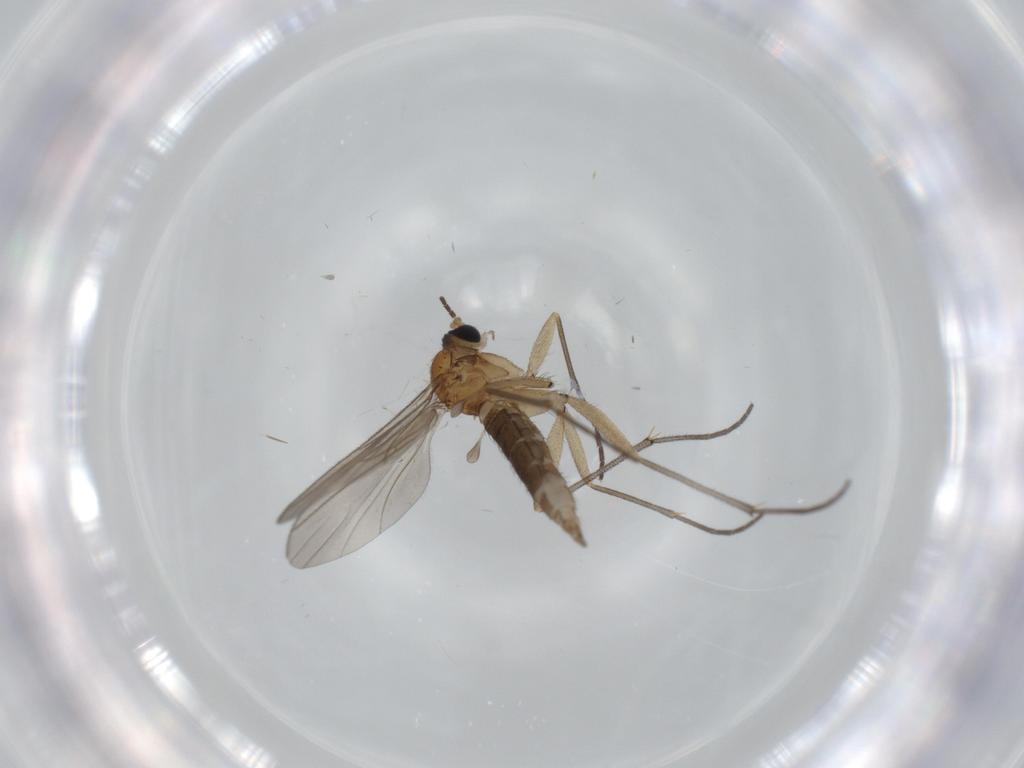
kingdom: Animalia
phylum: Arthropoda
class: Insecta
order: Diptera
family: Sciaridae
